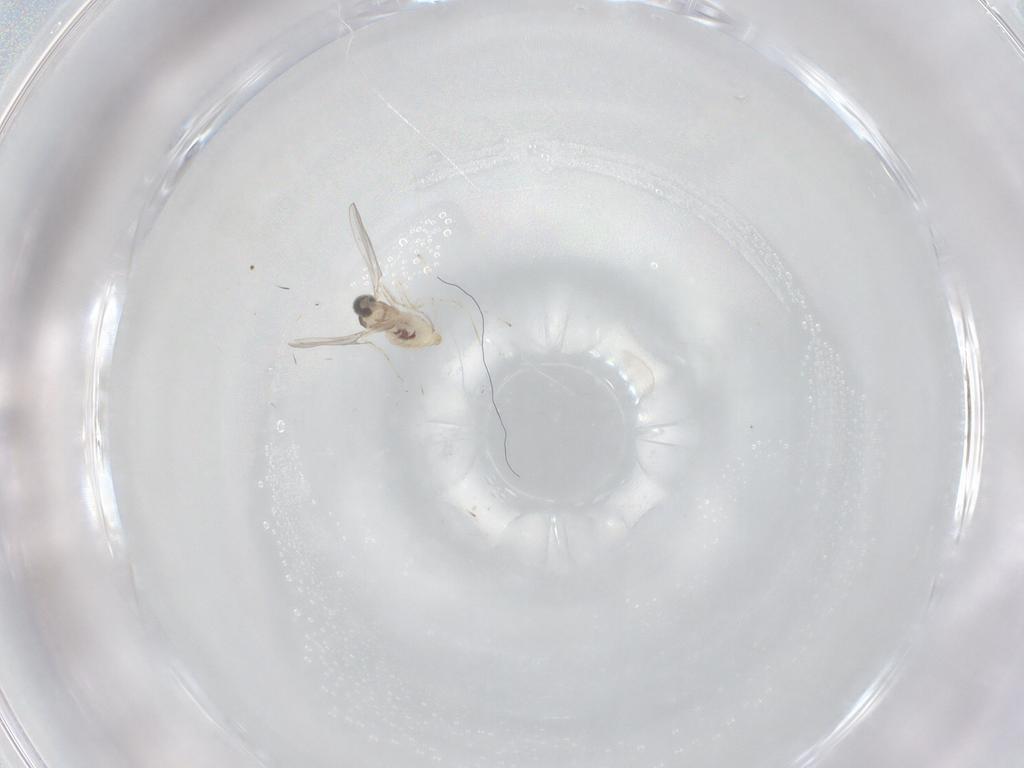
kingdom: Animalia
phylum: Arthropoda
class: Insecta
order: Diptera
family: Cecidomyiidae
